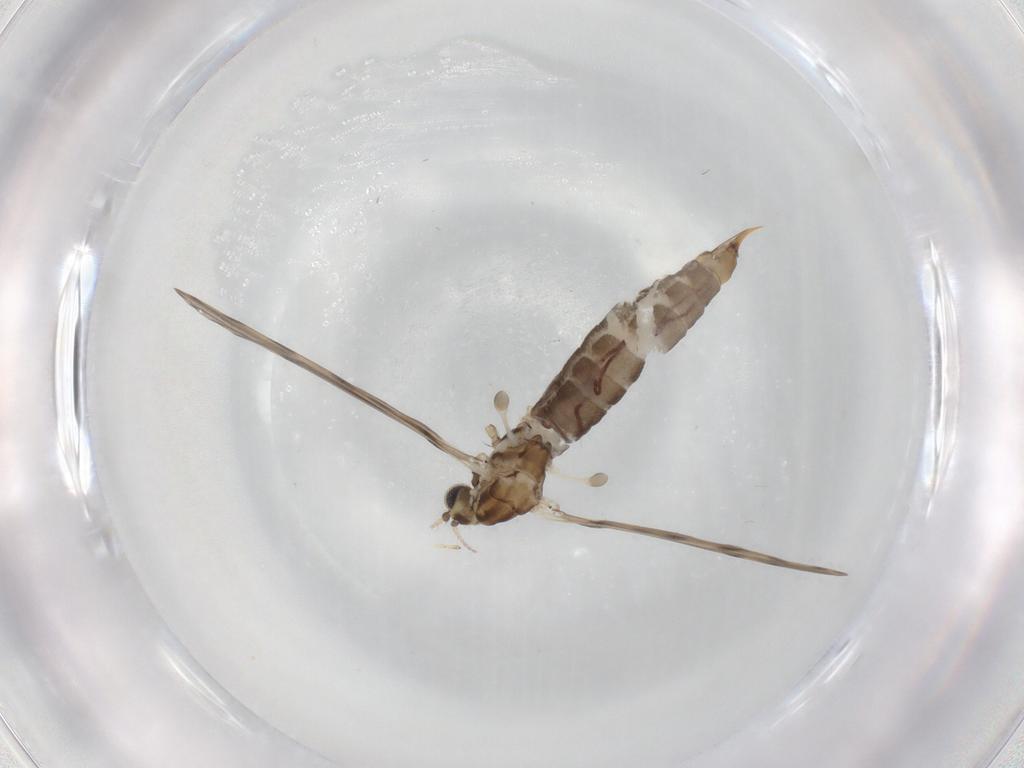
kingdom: Animalia
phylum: Arthropoda
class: Insecta
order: Diptera
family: Limoniidae
